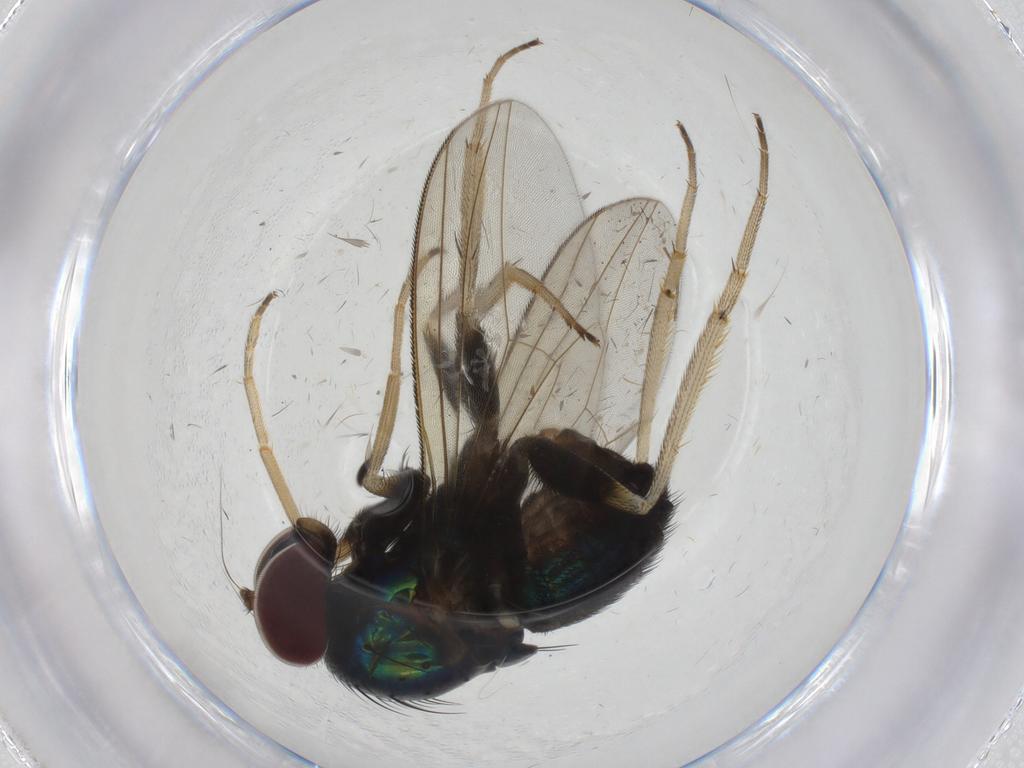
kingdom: Animalia
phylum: Arthropoda
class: Insecta
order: Diptera
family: Dolichopodidae
